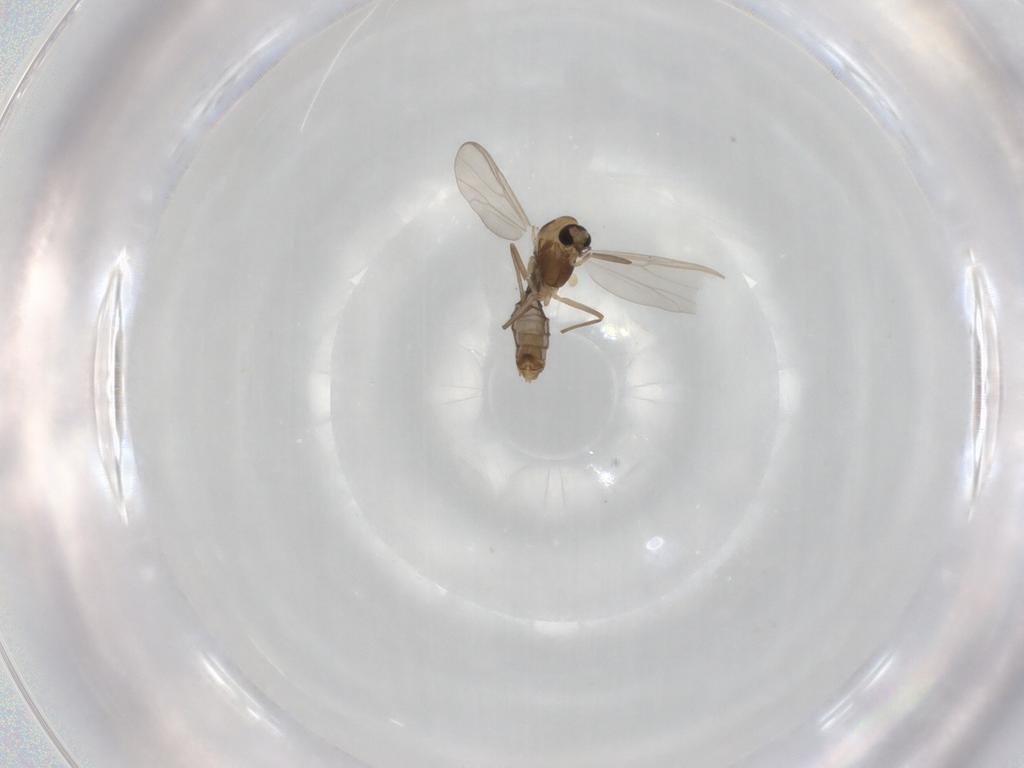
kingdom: Animalia
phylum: Arthropoda
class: Insecta
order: Diptera
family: Chironomidae
